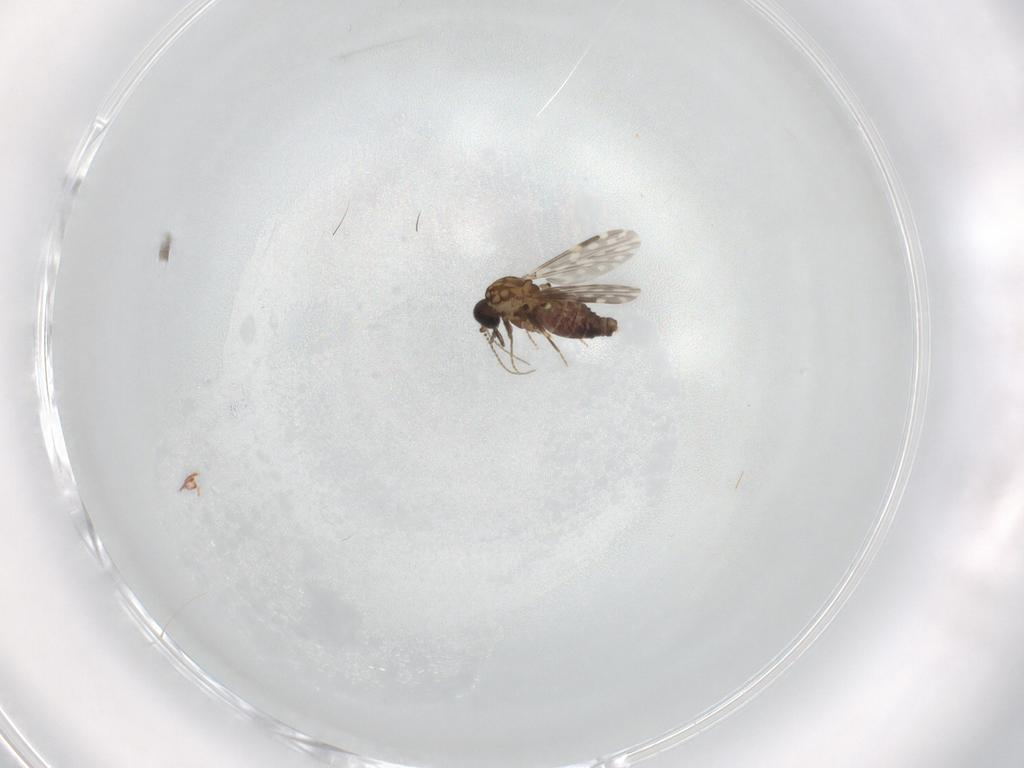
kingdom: Animalia
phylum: Arthropoda
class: Insecta
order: Diptera
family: Ceratopogonidae
